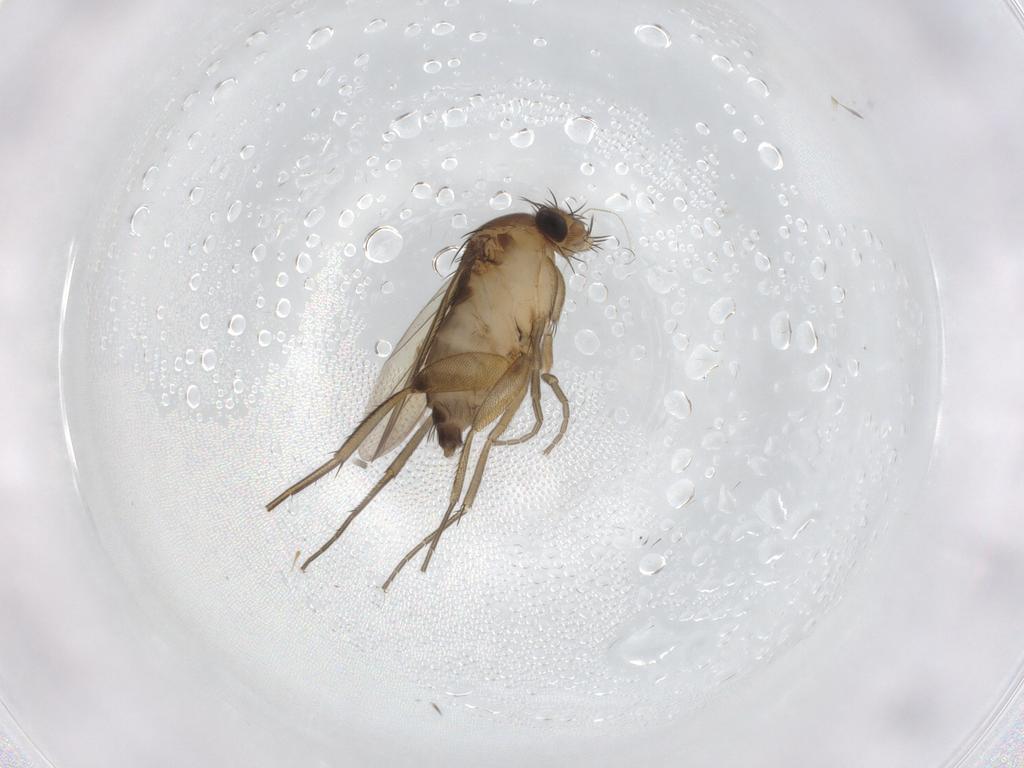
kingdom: Animalia
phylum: Arthropoda
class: Insecta
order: Diptera
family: Phoridae
